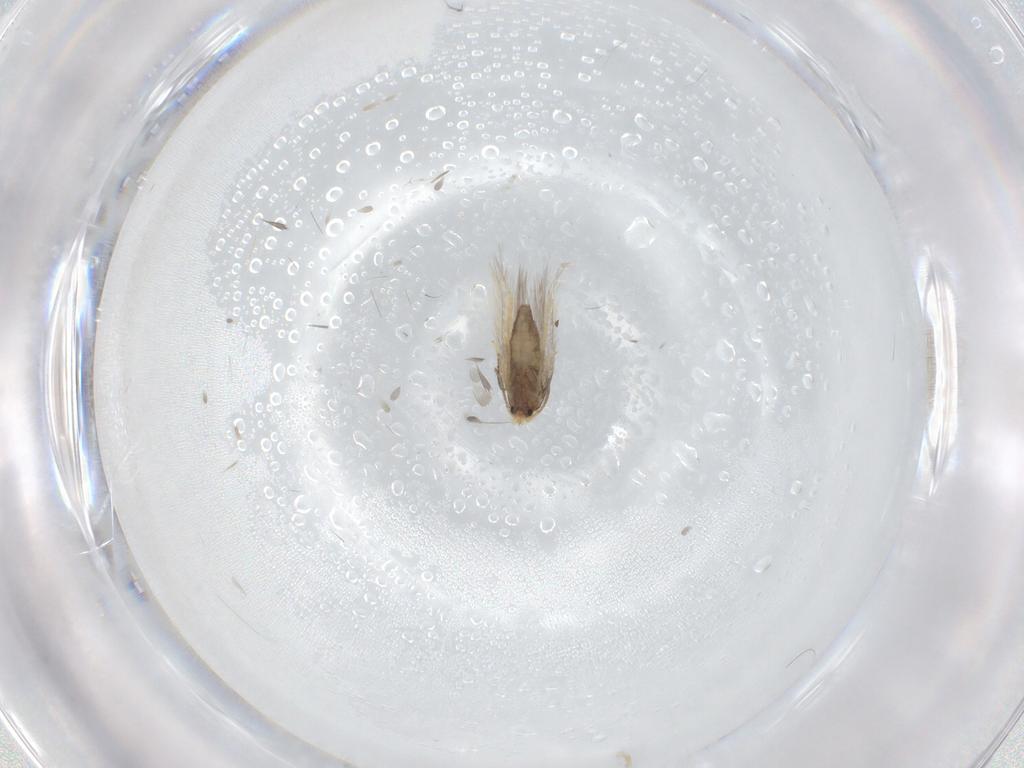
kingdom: Animalia
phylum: Arthropoda
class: Insecta
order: Lepidoptera
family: Nepticulidae
